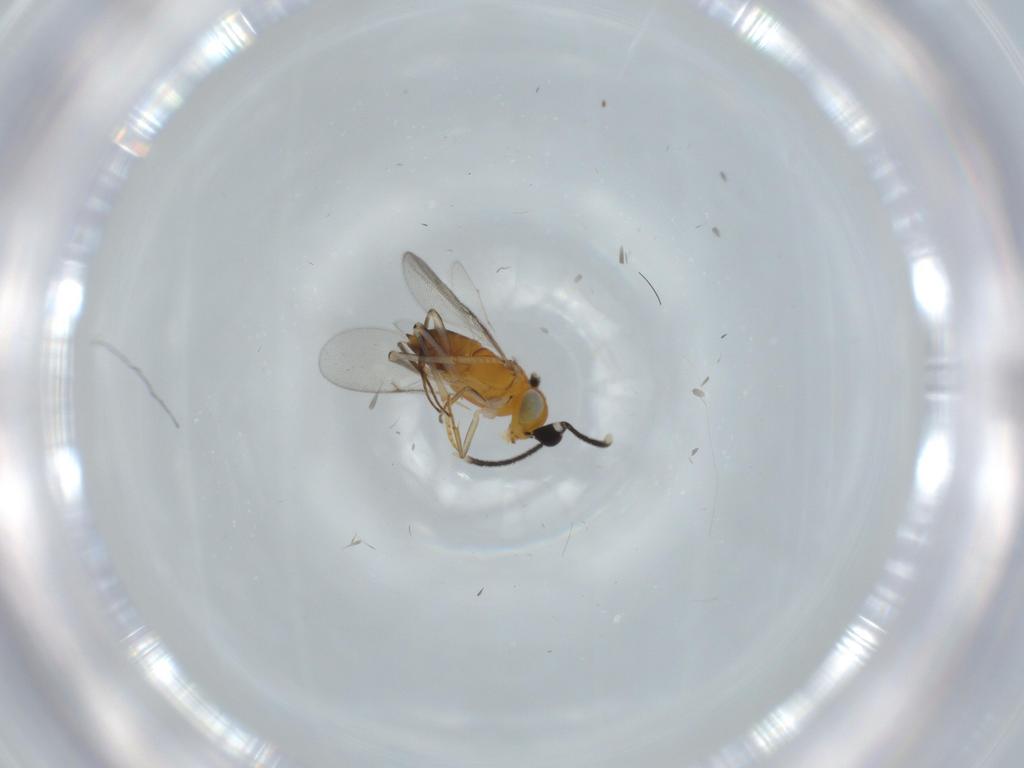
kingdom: Animalia
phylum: Arthropoda
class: Insecta
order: Hymenoptera
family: Encyrtidae
